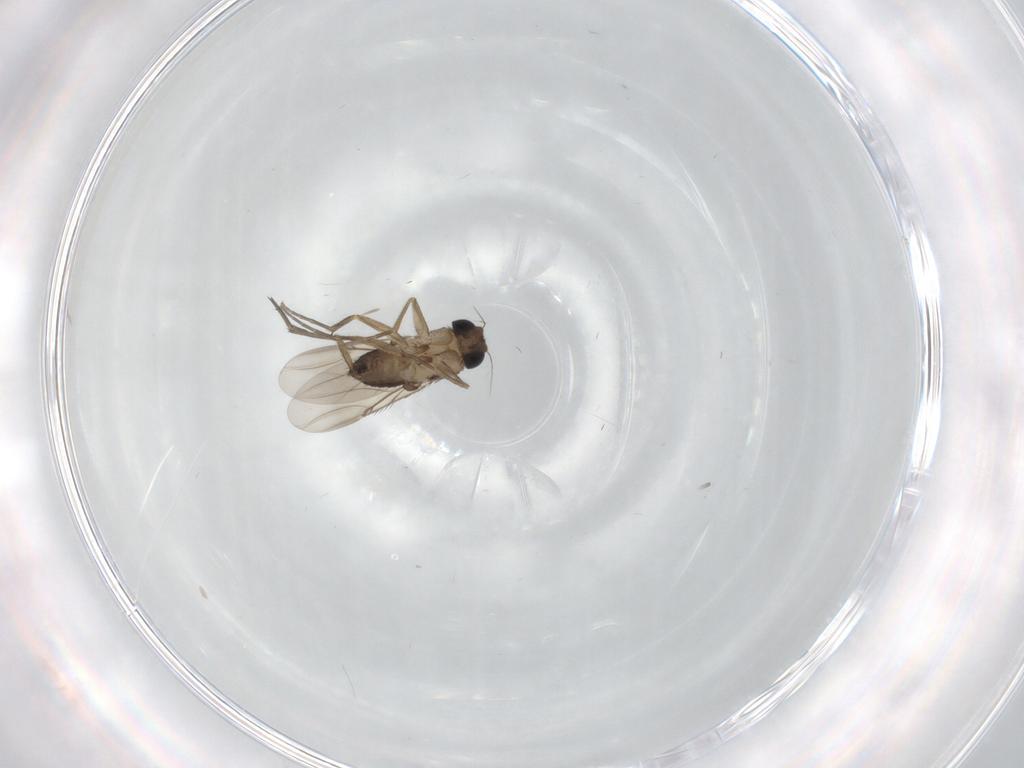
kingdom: Animalia
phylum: Arthropoda
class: Insecta
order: Diptera
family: Phoridae
